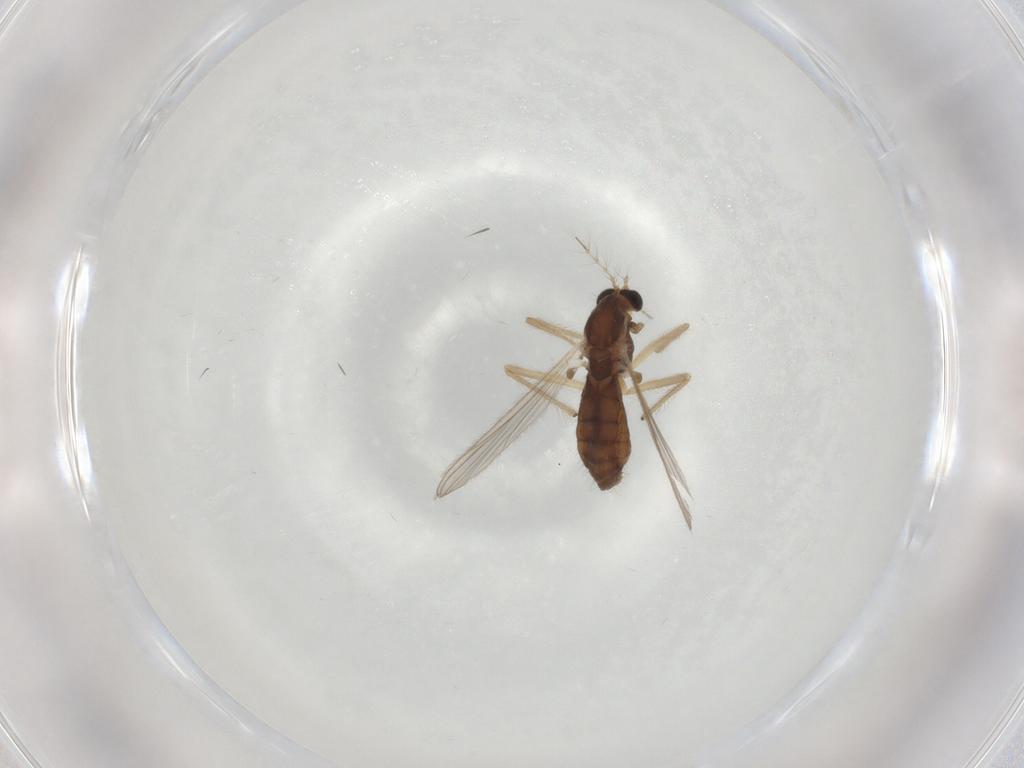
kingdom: Animalia
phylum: Arthropoda
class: Insecta
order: Diptera
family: Chironomidae
